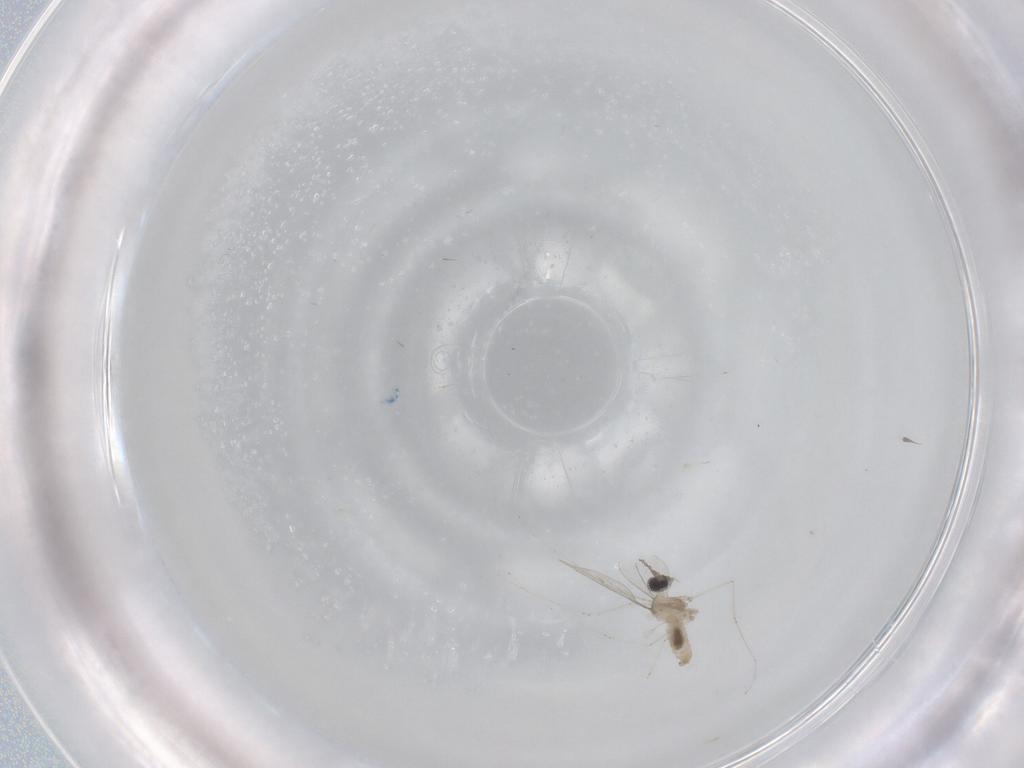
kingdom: Animalia
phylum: Arthropoda
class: Insecta
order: Diptera
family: Cecidomyiidae
